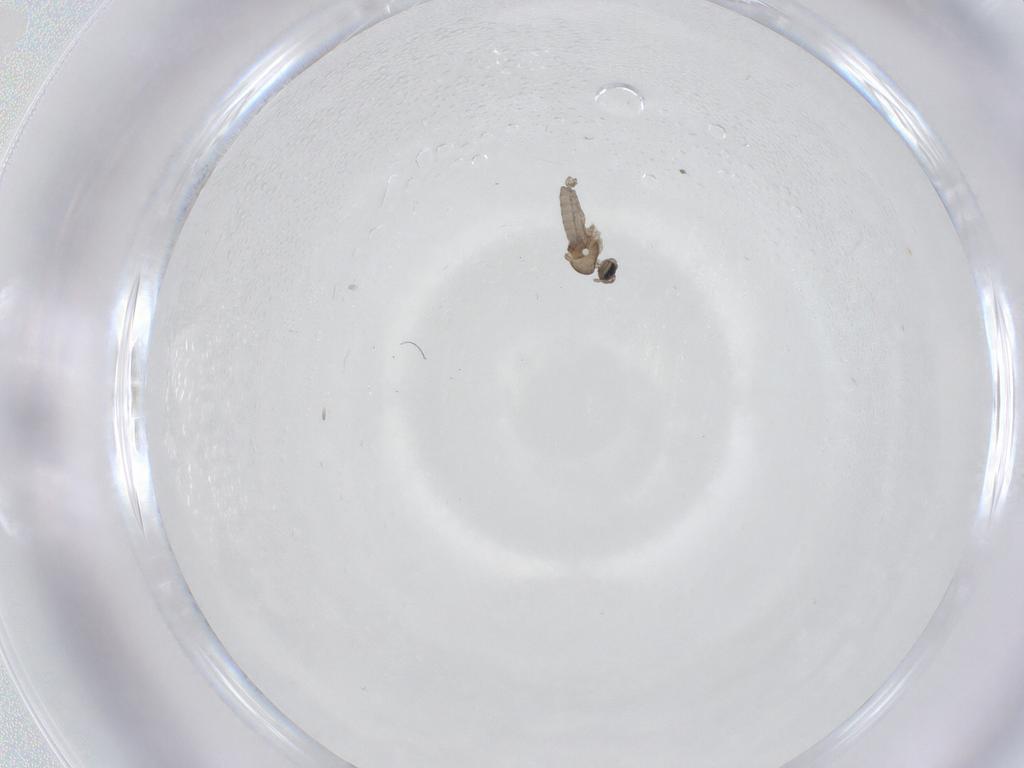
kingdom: Animalia
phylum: Arthropoda
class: Insecta
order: Diptera
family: Cecidomyiidae
